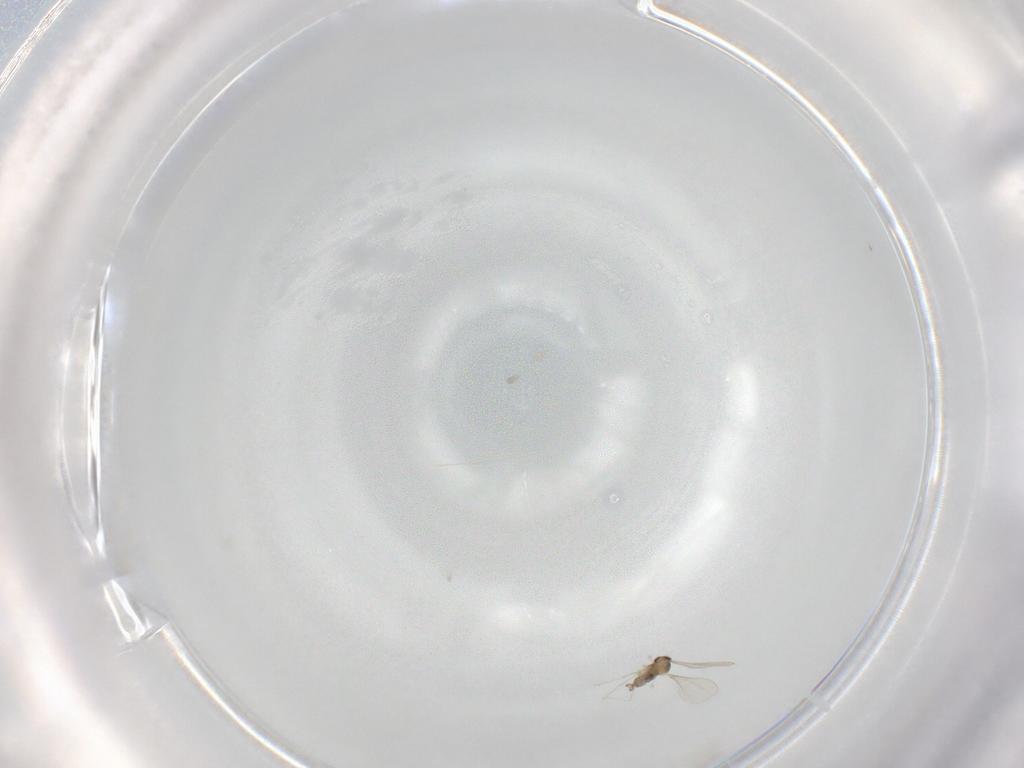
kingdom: Animalia
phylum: Arthropoda
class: Insecta
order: Diptera
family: Cecidomyiidae
